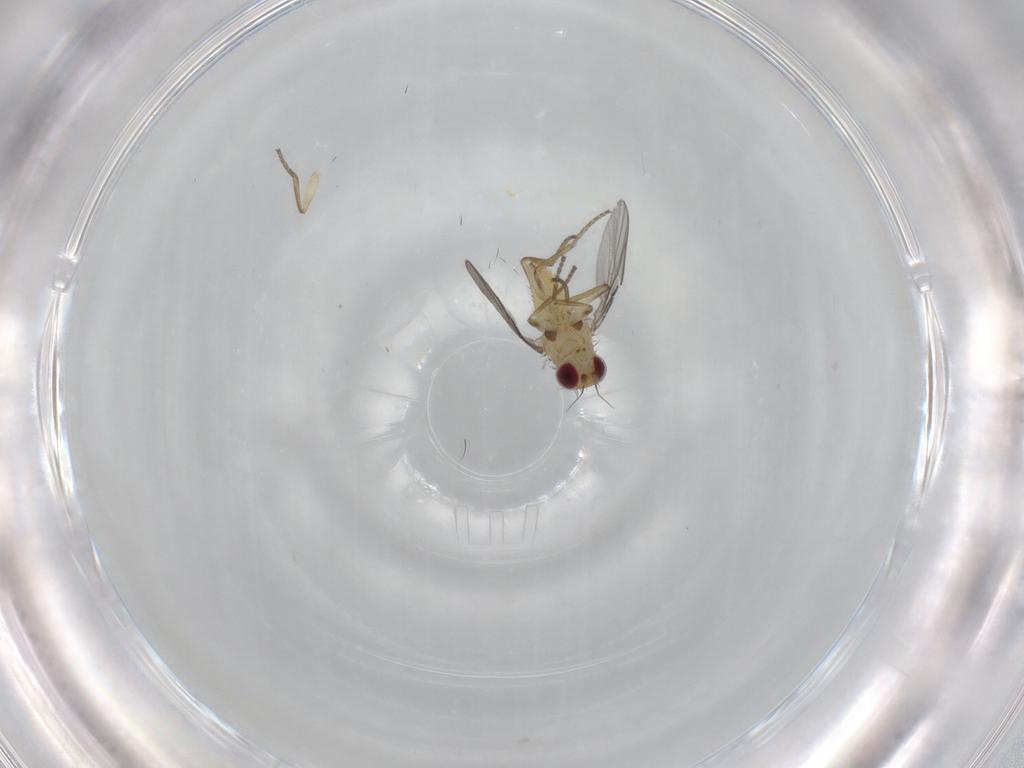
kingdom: Animalia
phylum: Arthropoda
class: Insecta
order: Diptera
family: Agromyzidae
